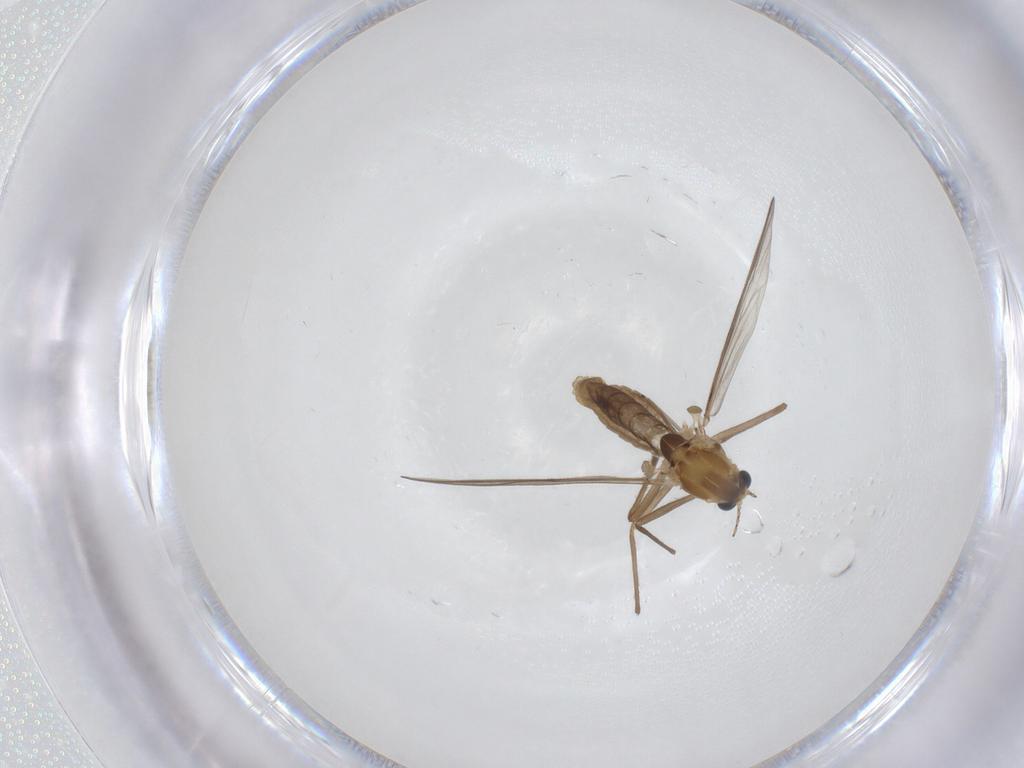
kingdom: Animalia
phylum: Arthropoda
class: Insecta
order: Diptera
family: Chironomidae
